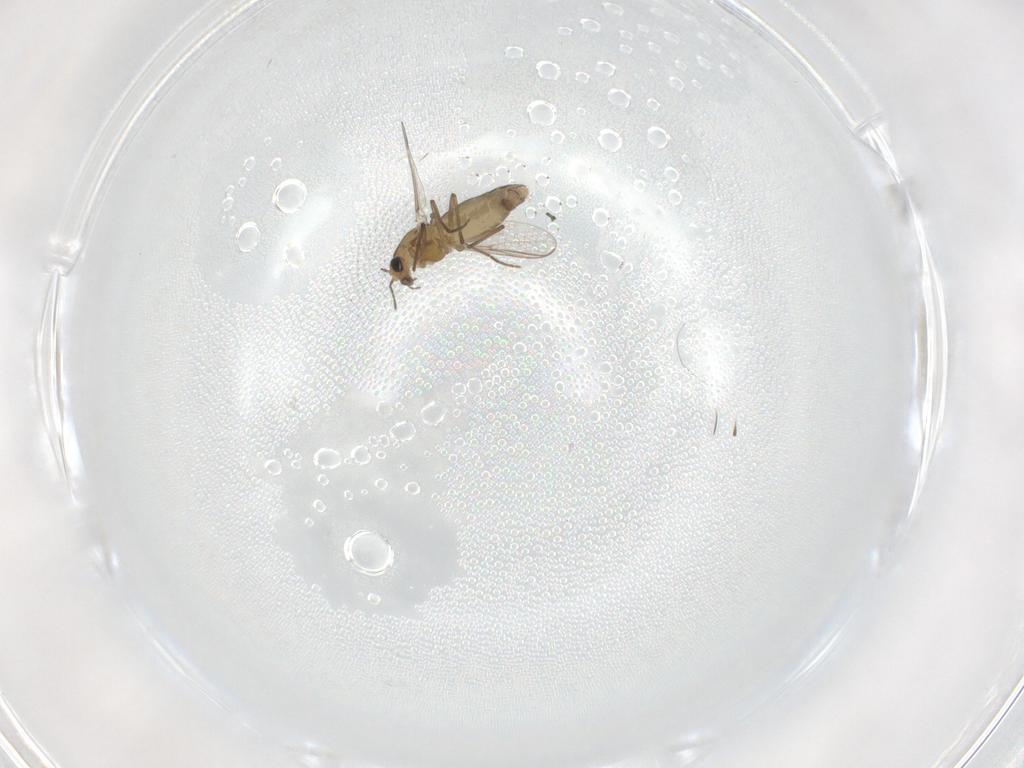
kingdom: Animalia
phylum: Arthropoda
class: Insecta
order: Diptera
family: Chironomidae
